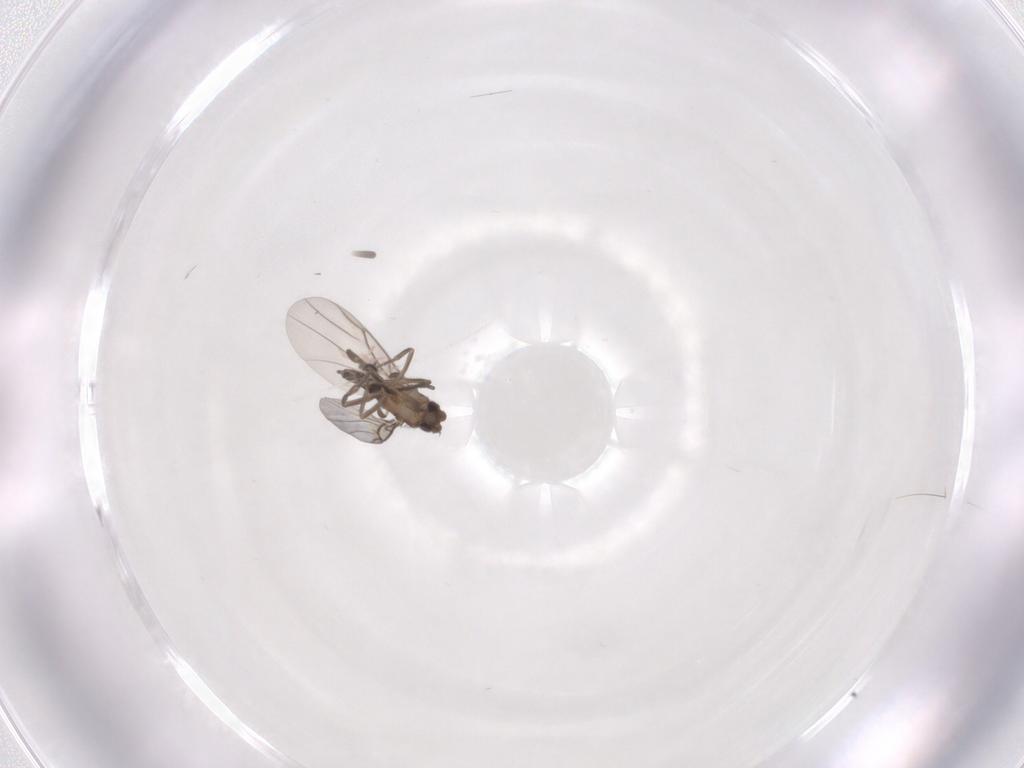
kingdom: Animalia
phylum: Arthropoda
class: Insecta
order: Diptera
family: Phoridae
